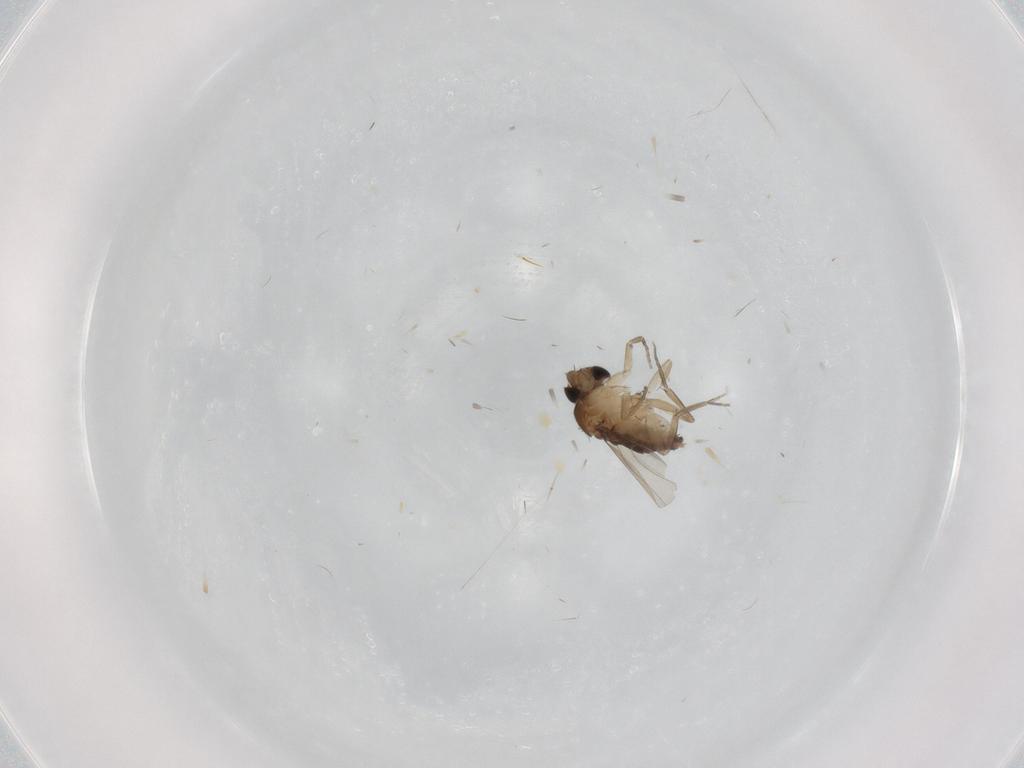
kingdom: Animalia
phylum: Arthropoda
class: Insecta
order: Diptera
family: Phoridae
